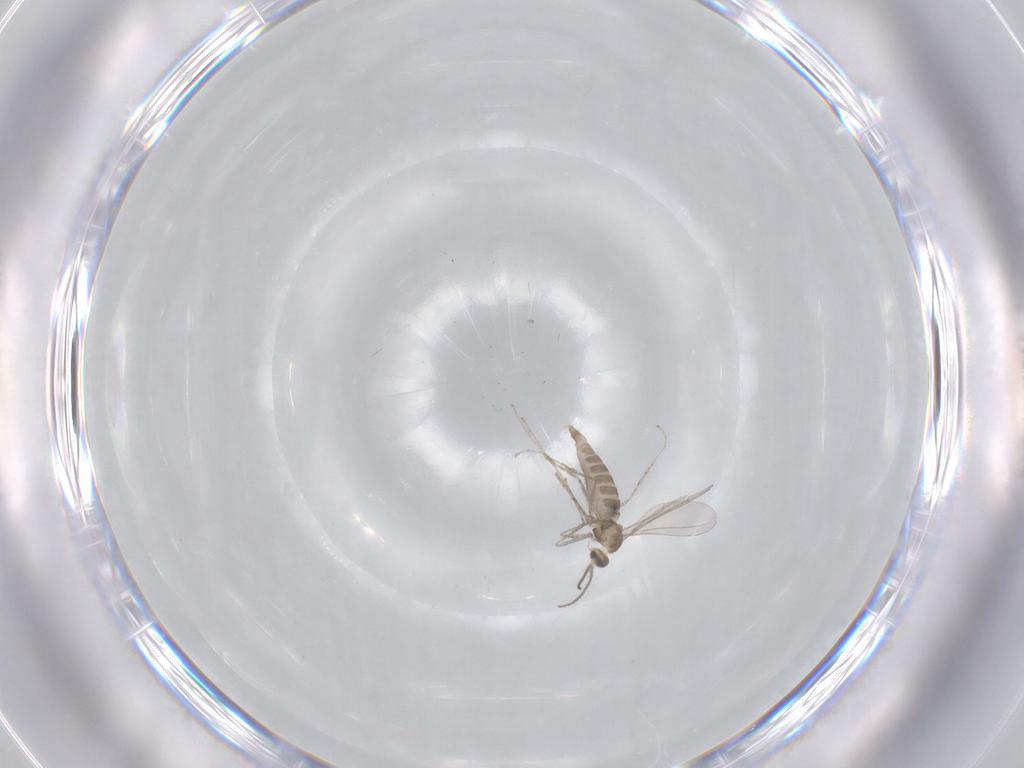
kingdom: Animalia
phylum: Arthropoda
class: Insecta
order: Diptera
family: Ceratopogonidae
